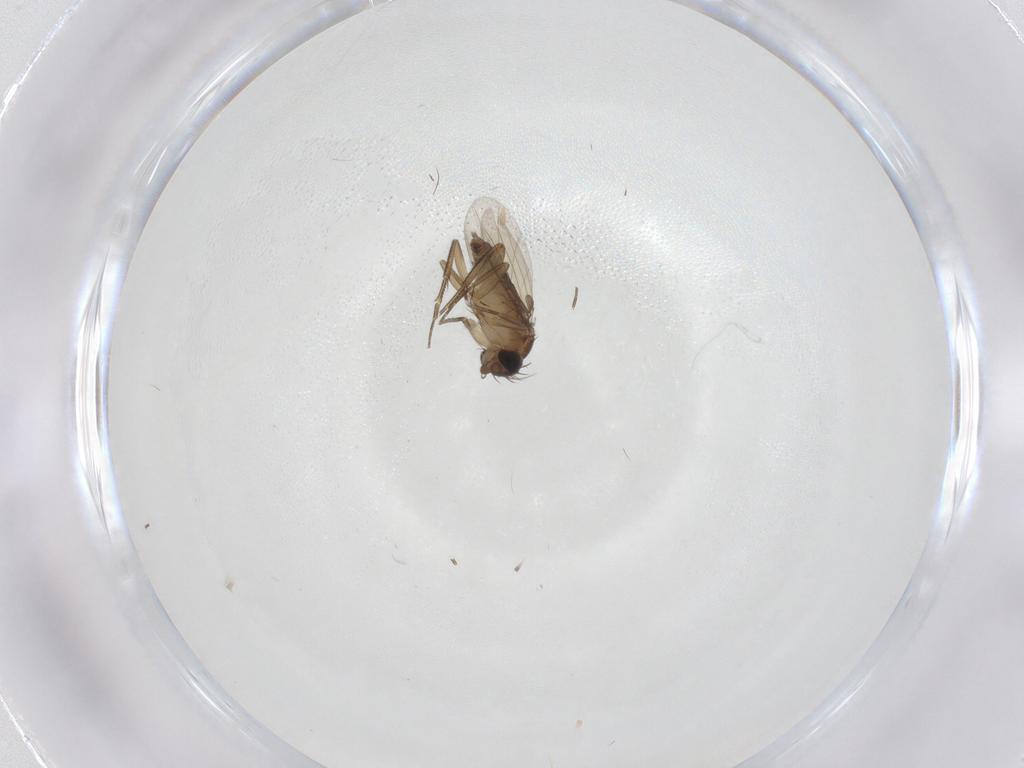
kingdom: Animalia
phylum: Arthropoda
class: Insecta
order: Diptera
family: Phoridae
